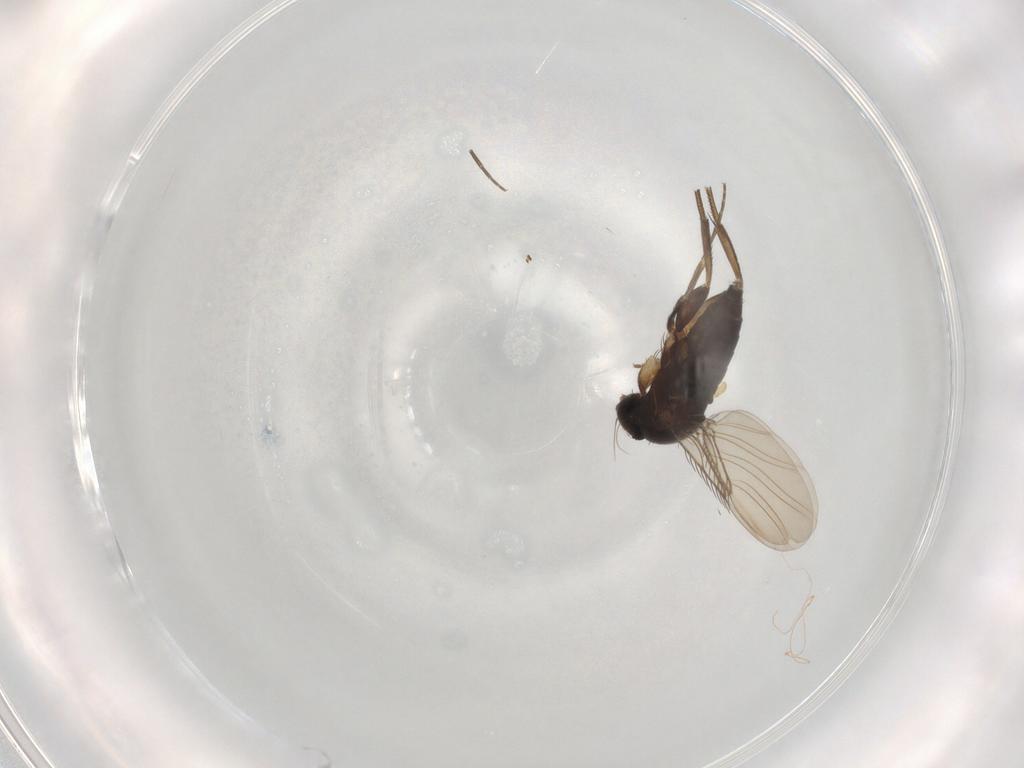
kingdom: Animalia
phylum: Arthropoda
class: Insecta
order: Diptera
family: Phoridae
